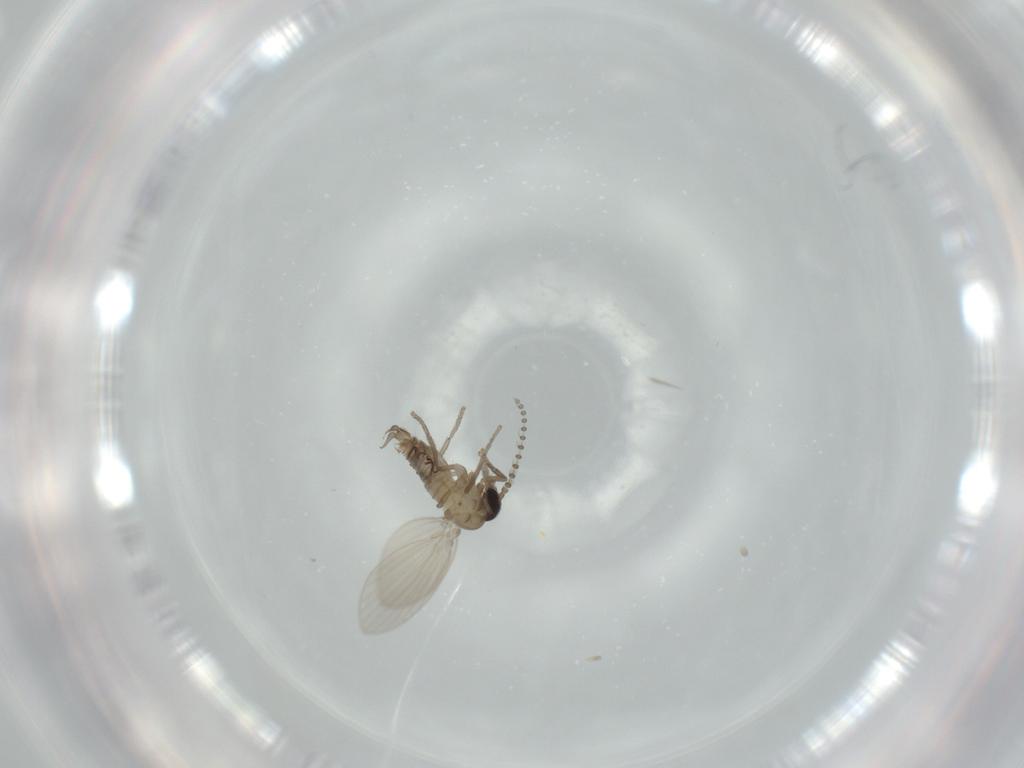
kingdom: Animalia
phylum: Arthropoda
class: Insecta
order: Diptera
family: Psychodidae
